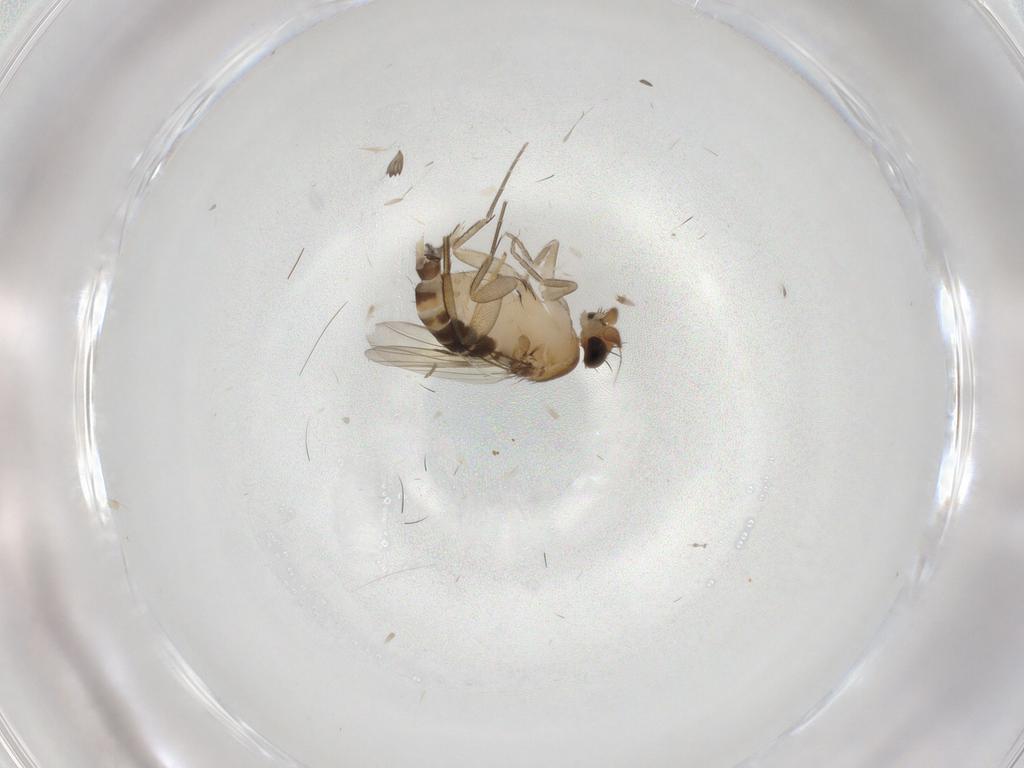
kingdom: Animalia
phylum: Arthropoda
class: Insecta
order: Diptera
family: Phoridae
